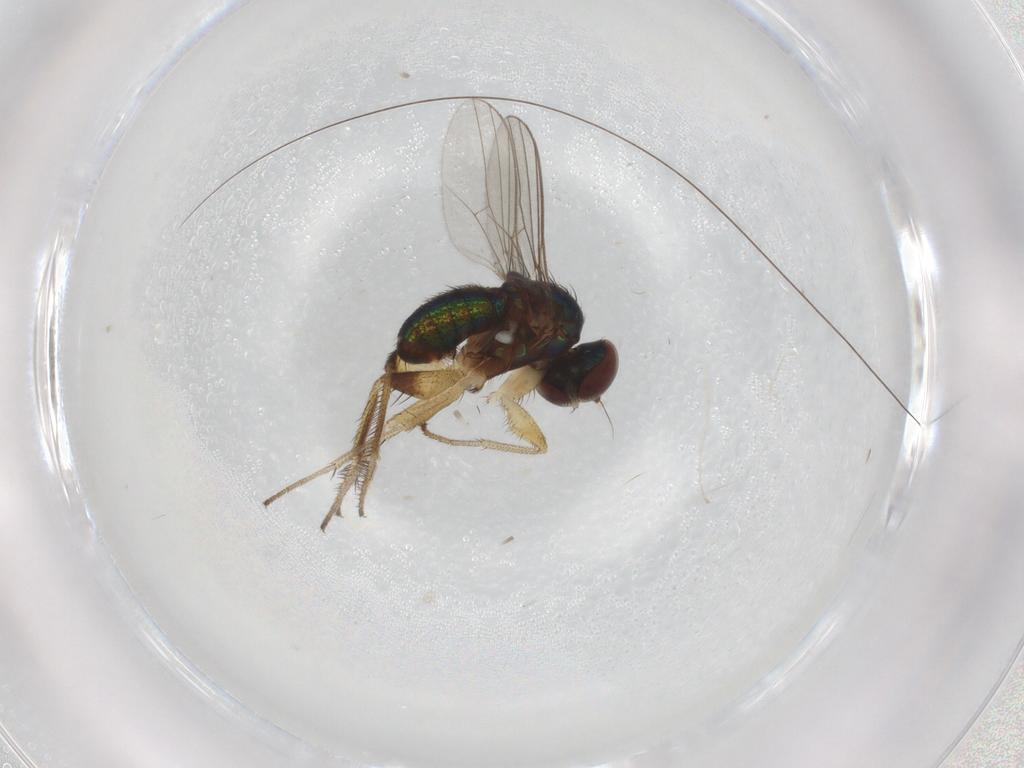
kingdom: Animalia
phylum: Arthropoda
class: Insecta
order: Diptera
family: Dolichopodidae
